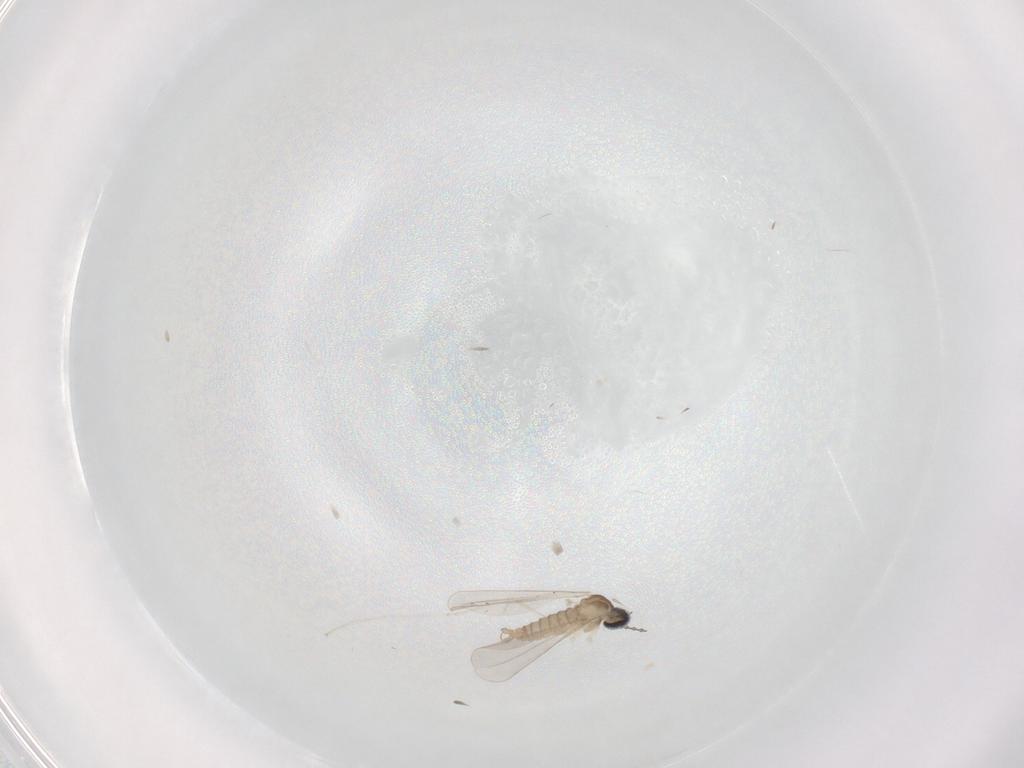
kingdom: Animalia
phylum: Arthropoda
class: Insecta
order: Diptera
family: Cecidomyiidae
